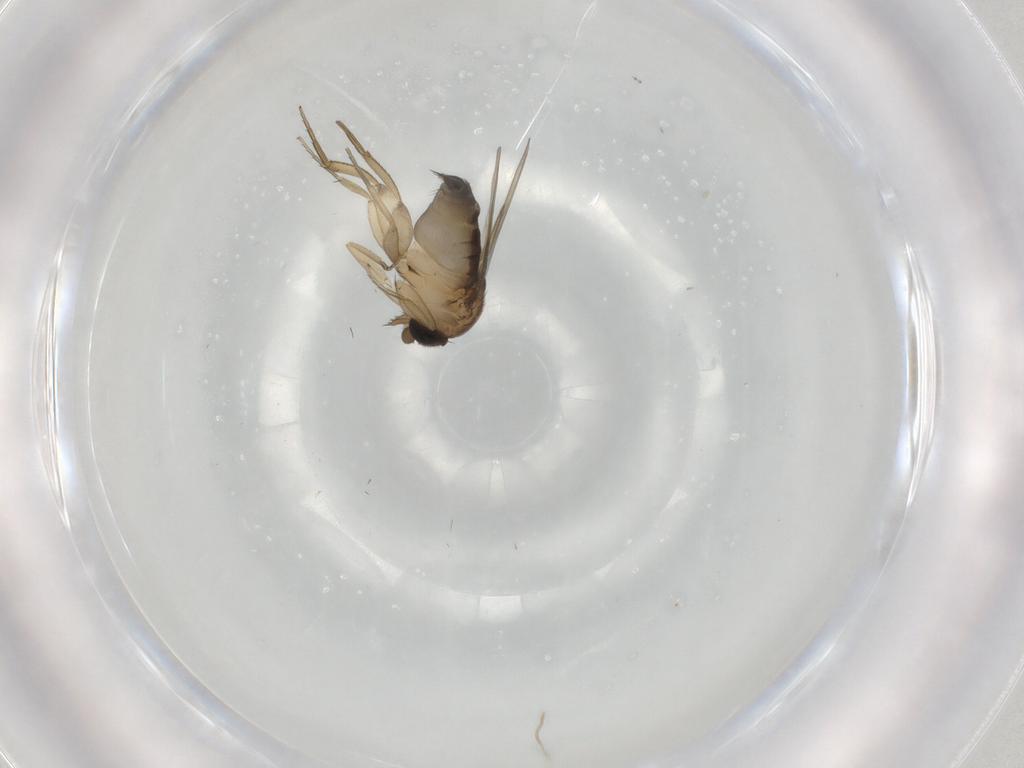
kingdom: Animalia
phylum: Arthropoda
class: Insecta
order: Diptera
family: Phoridae
